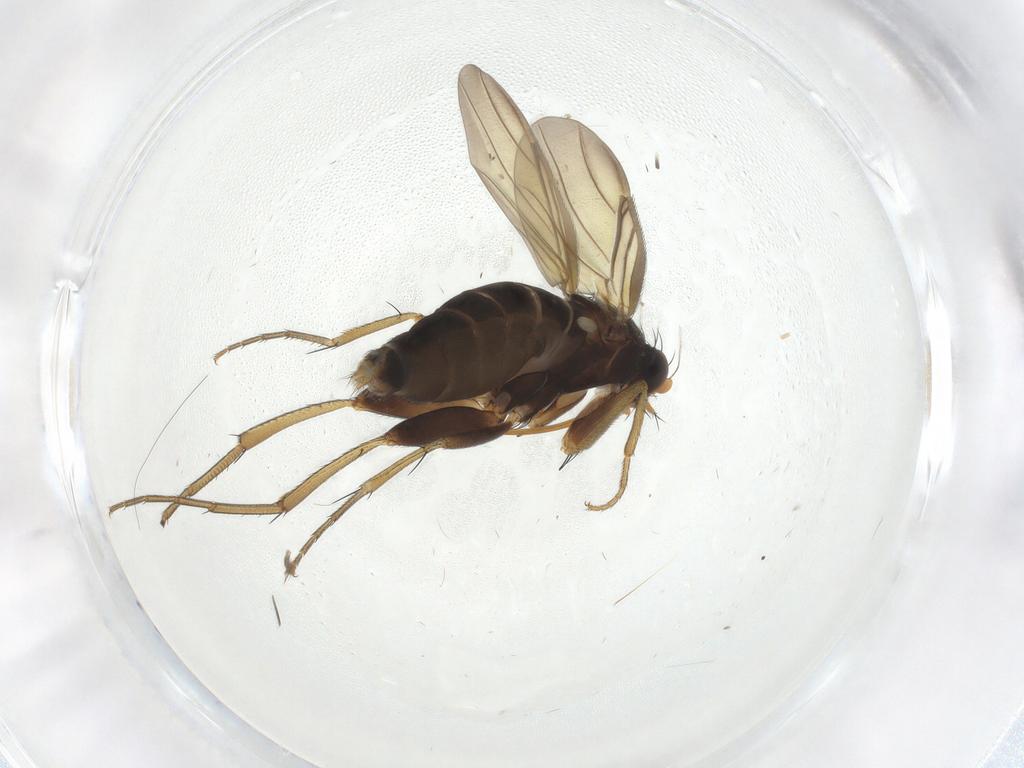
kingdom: Animalia
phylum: Arthropoda
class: Insecta
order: Diptera
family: Phoridae
